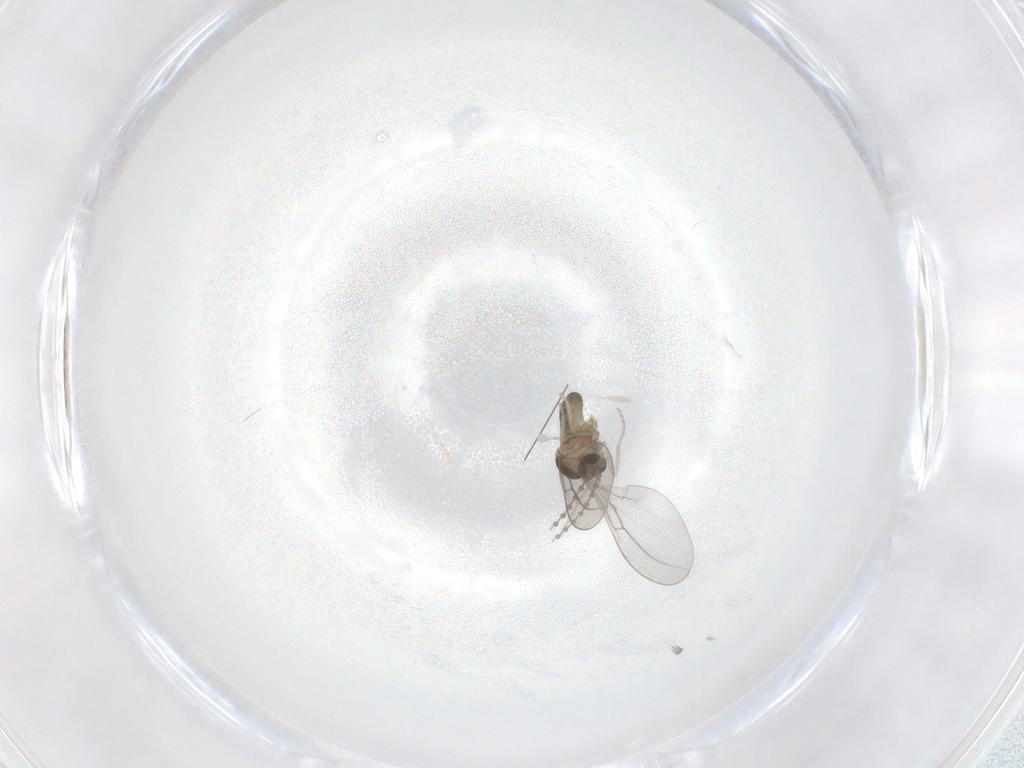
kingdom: Animalia
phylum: Arthropoda
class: Insecta
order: Diptera
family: Cecidomyiidae
